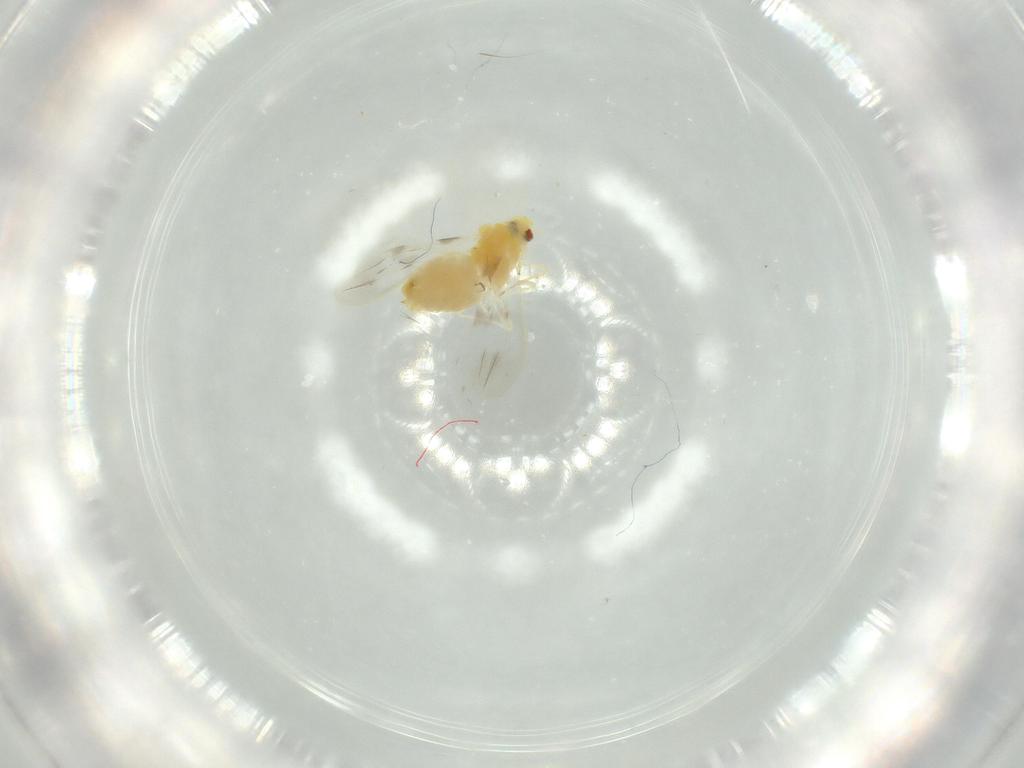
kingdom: Animalia
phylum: Arthropoda
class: Insecta
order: Hemiptera
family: Aleyrodidae
